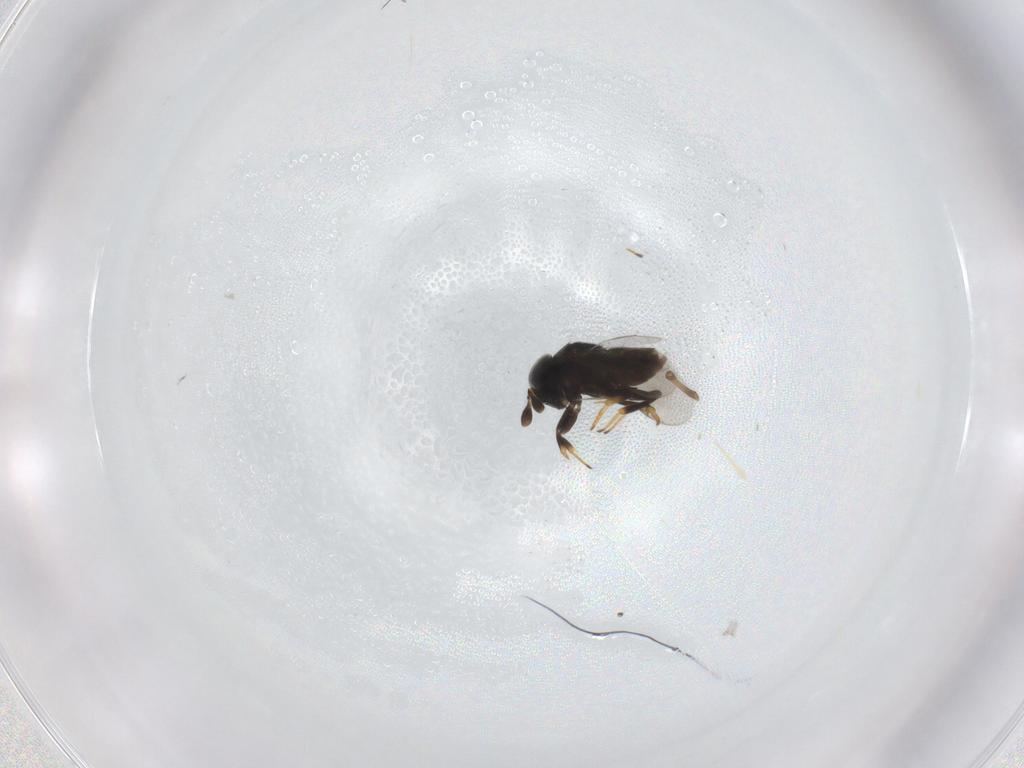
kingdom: Animalia
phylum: Arthropoda
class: Insecta
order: Hymenoptera
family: Encyrtidae
